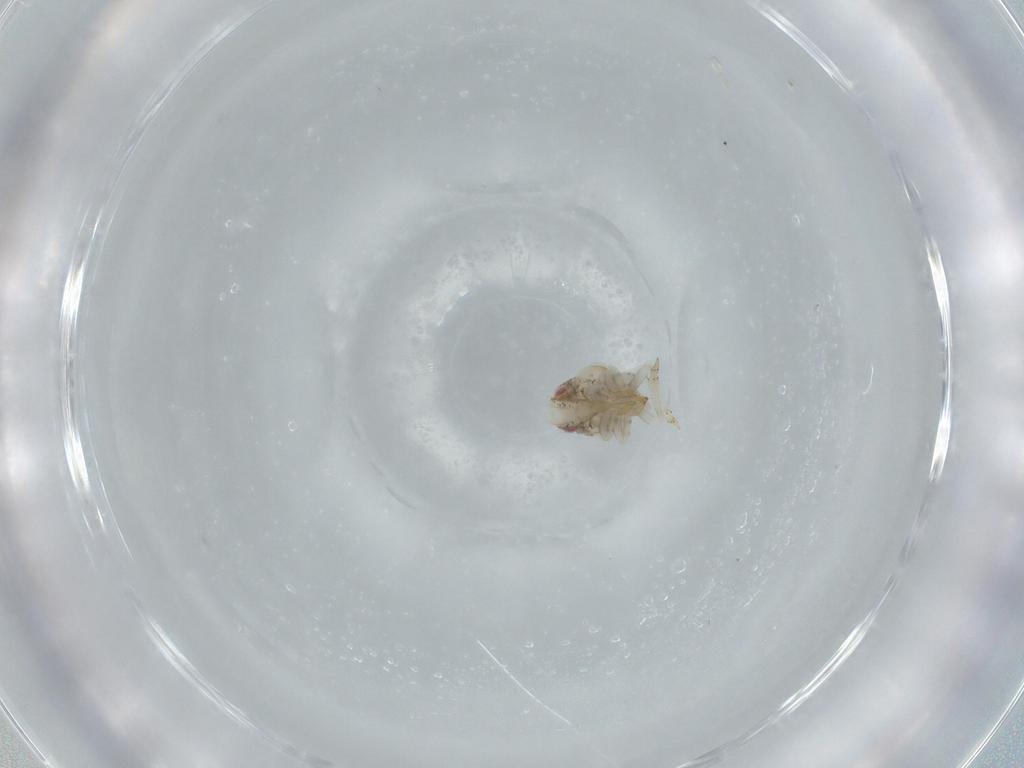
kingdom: Animalia
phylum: Arthropoda
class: Insecta
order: Hemiptera
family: Acanaloniidae
